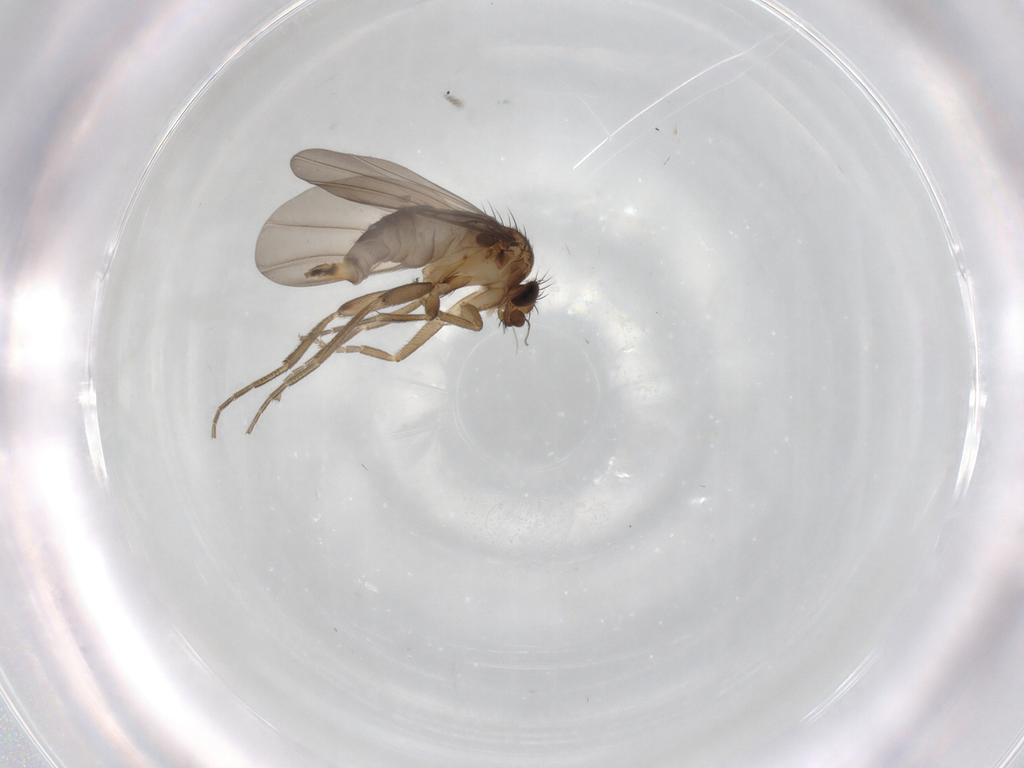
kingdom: Animalia
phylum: Arthropoda
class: Insecta
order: Diptera
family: Phoridae
